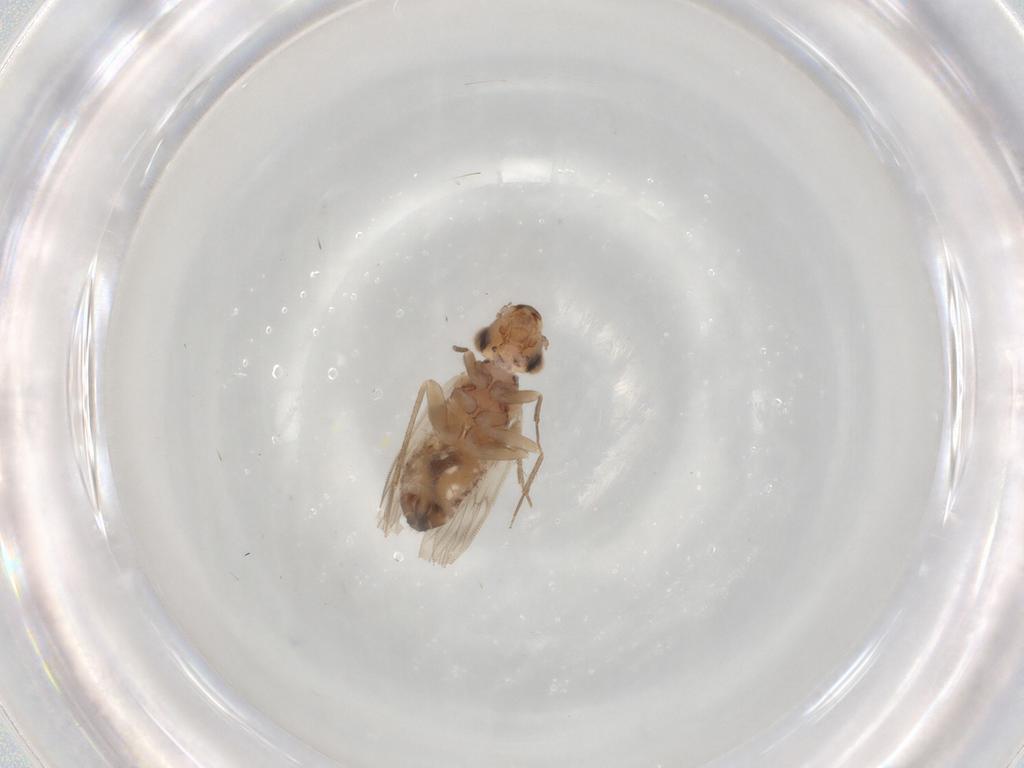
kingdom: Animalia
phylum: Arthropoda
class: Insecta
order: Psocodea
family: Lepidopsocidae
